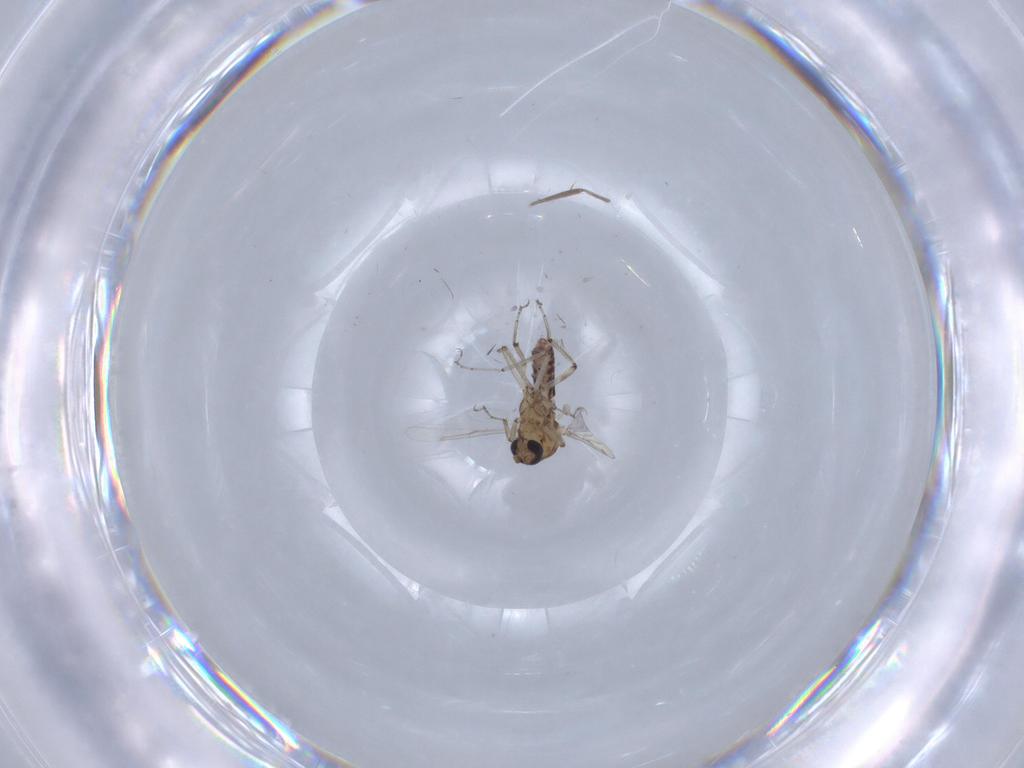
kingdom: Animalia
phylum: Arthropoda
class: Insecta
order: Diptera
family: Ceratopogonidae
